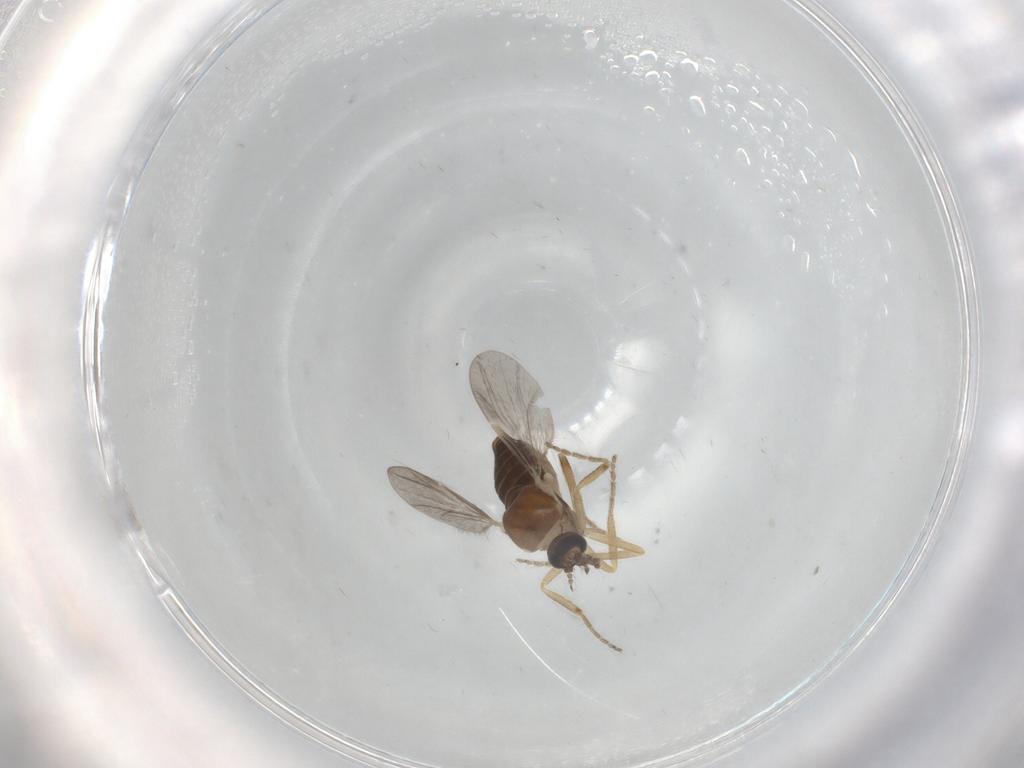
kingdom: Animalia
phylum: Arthropoda
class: Insecta
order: Diptera
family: Ceratopogonidae
